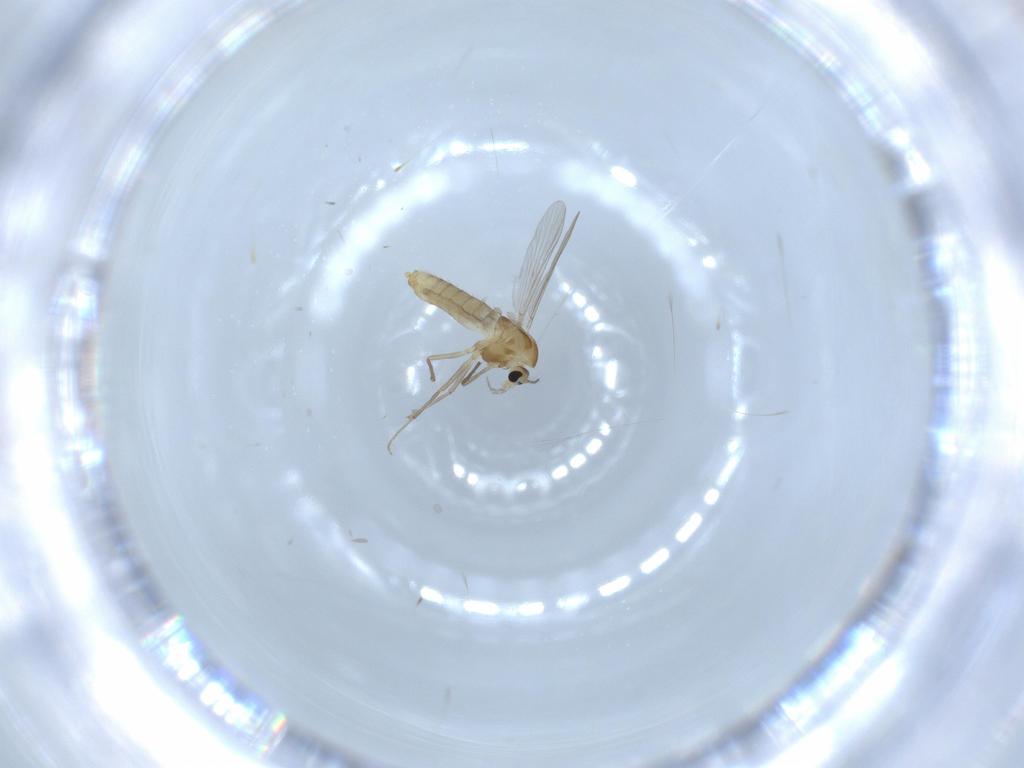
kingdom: Animalia
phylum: Arthropoda
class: Insecta
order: Diptera
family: Chironomidae
